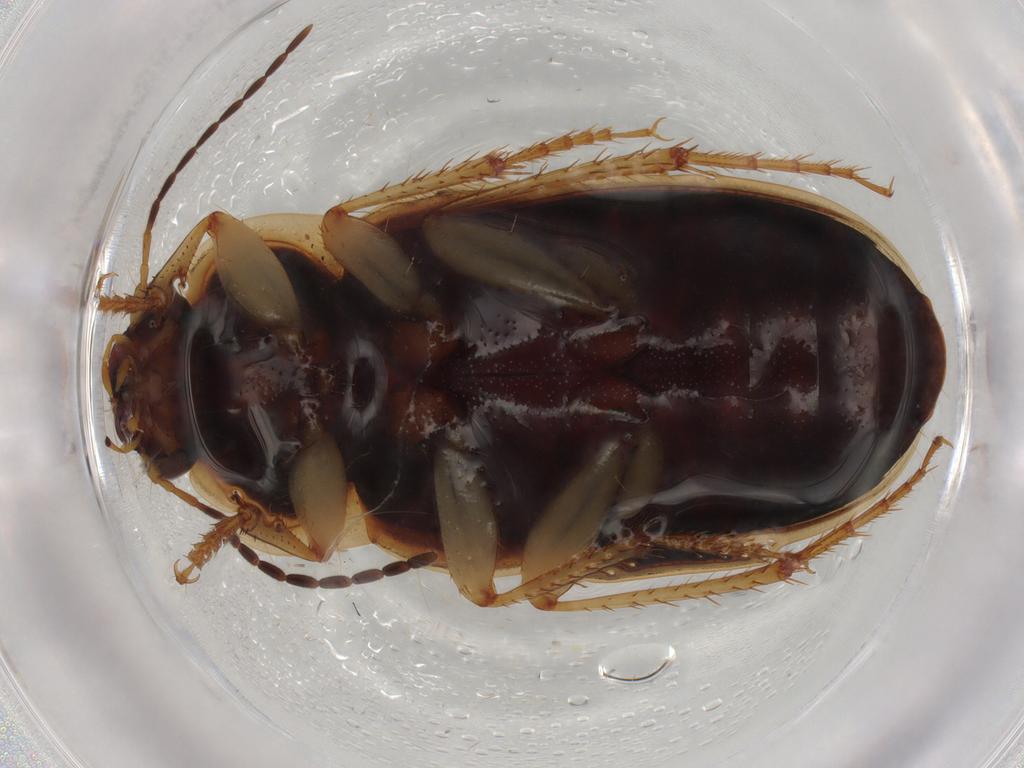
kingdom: Animalia
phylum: Arthropoda
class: Insecta
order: Coleoptera
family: Carabidae
